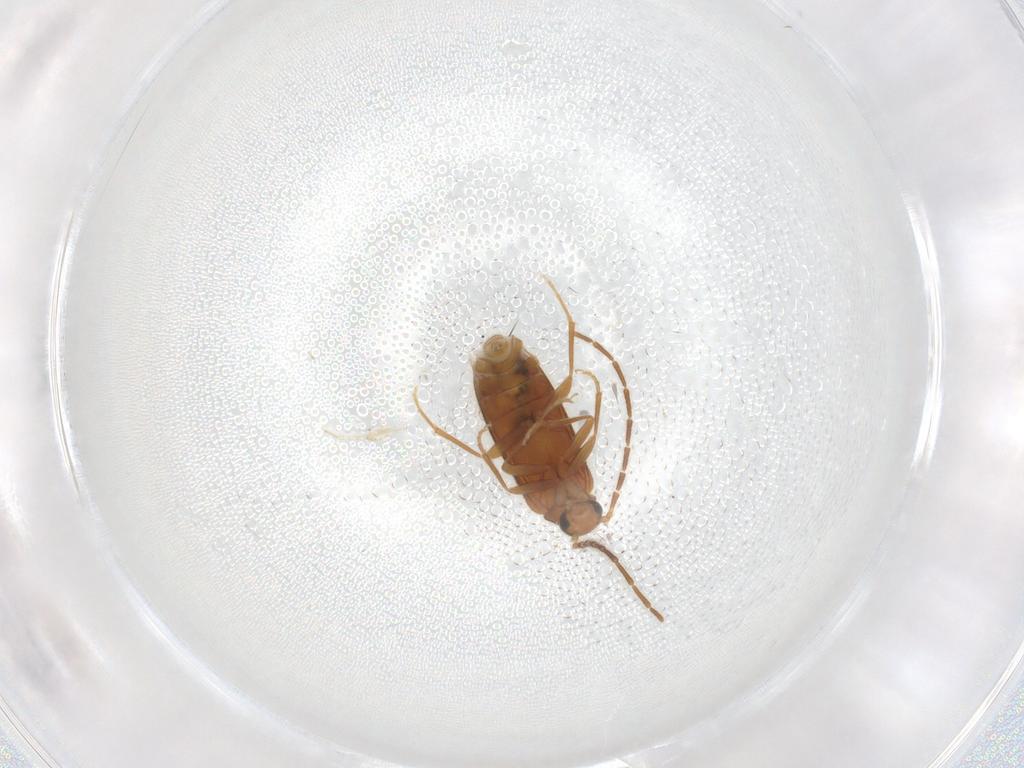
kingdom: Animalia
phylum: Arthropoda
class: Insecta
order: Coleoptera
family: Scraptiidae
